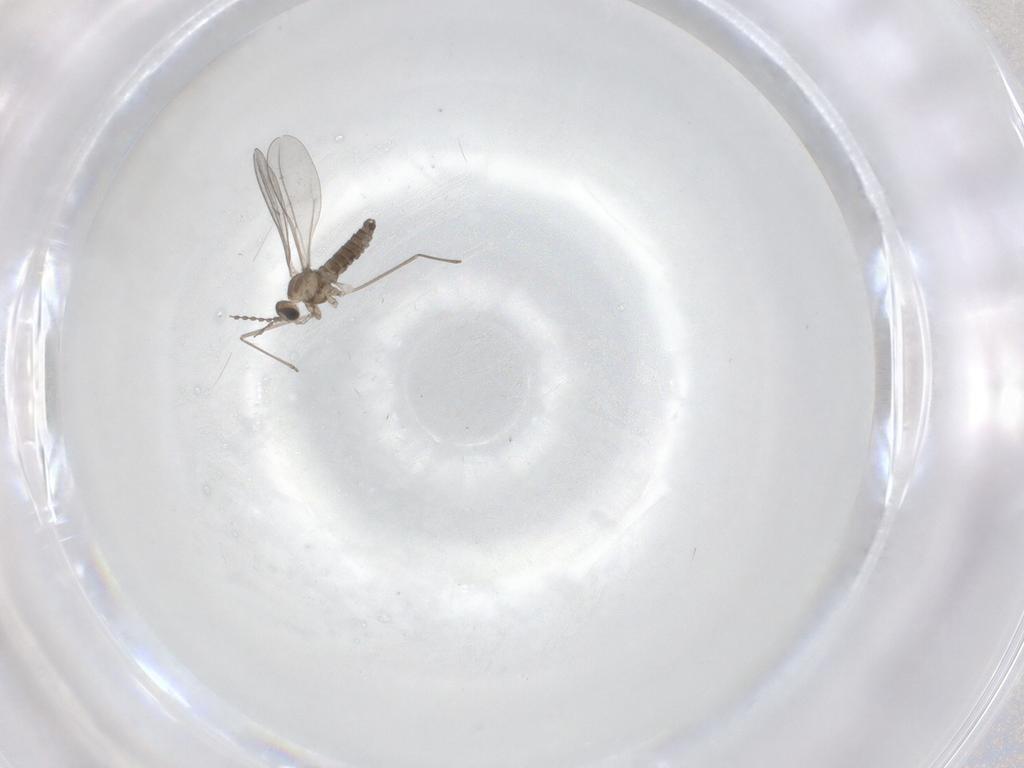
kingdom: Animalia
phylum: Arthropoda
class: Insecta
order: Diptera
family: Cecidomyiidae
